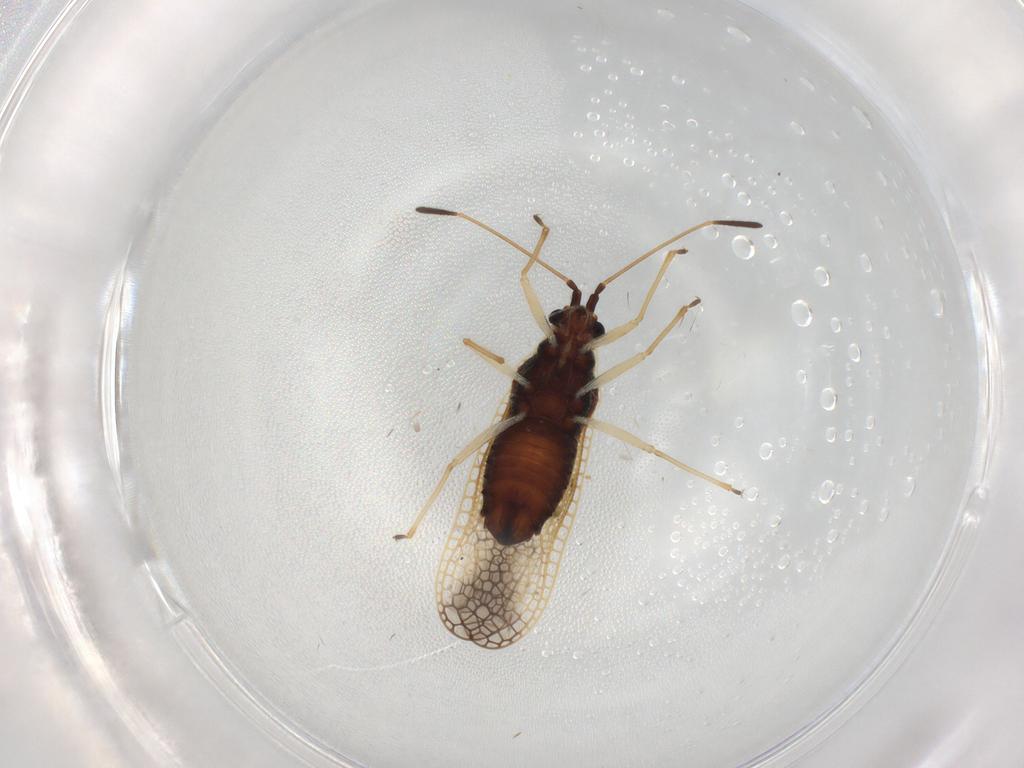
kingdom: Animalia
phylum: Arthropoda
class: Insecta
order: Hemiptera
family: Tingidae
